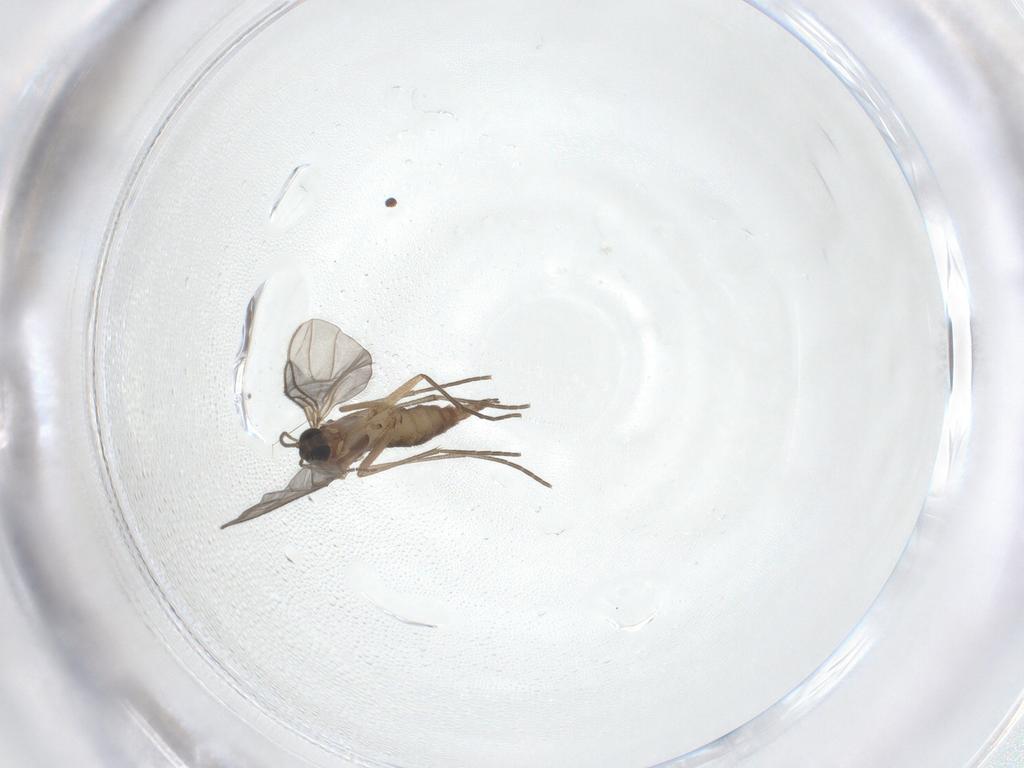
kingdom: Animalia
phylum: Arthropoda
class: Insecta
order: Diptera
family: Sciaridae
